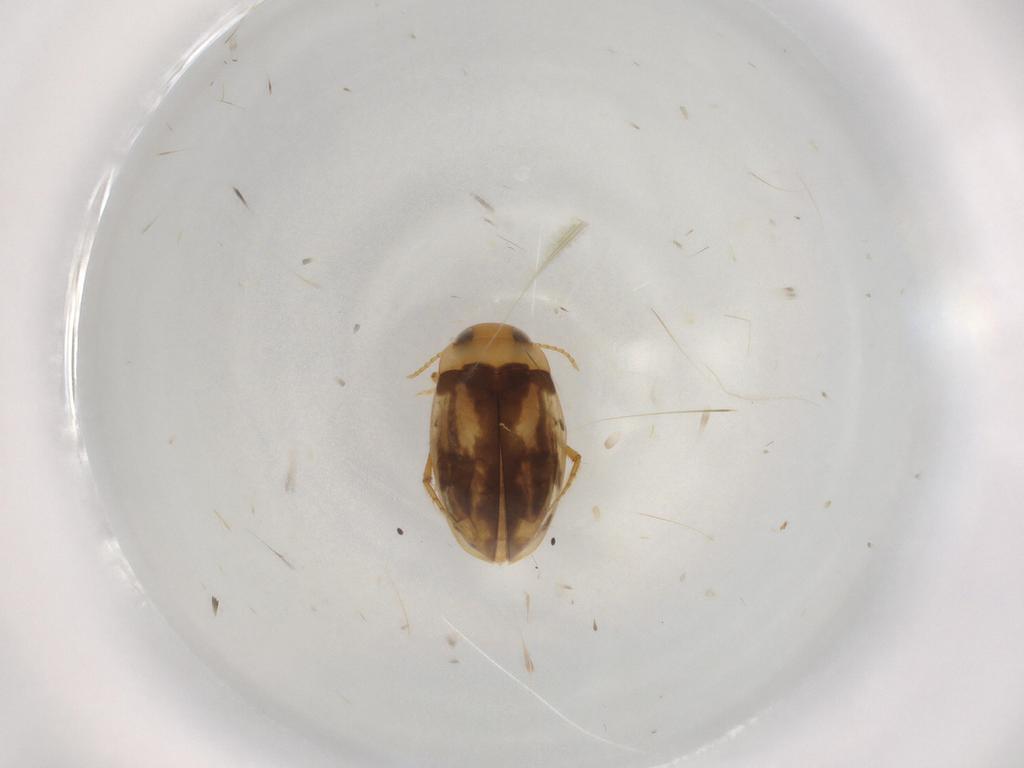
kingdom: Animalia
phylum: Arthropoda
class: Insecta
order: Coleoptera
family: Dytiscidae
